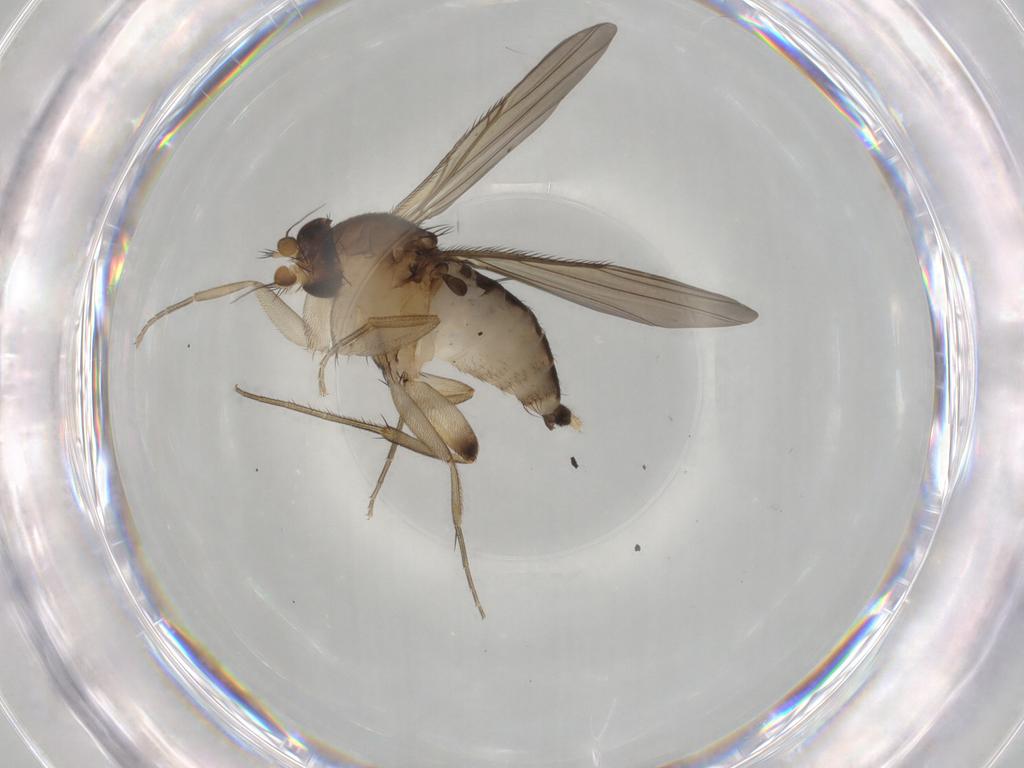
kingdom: Animalia
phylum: Arthropoda
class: Insecta
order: Diptera
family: Phoridae
